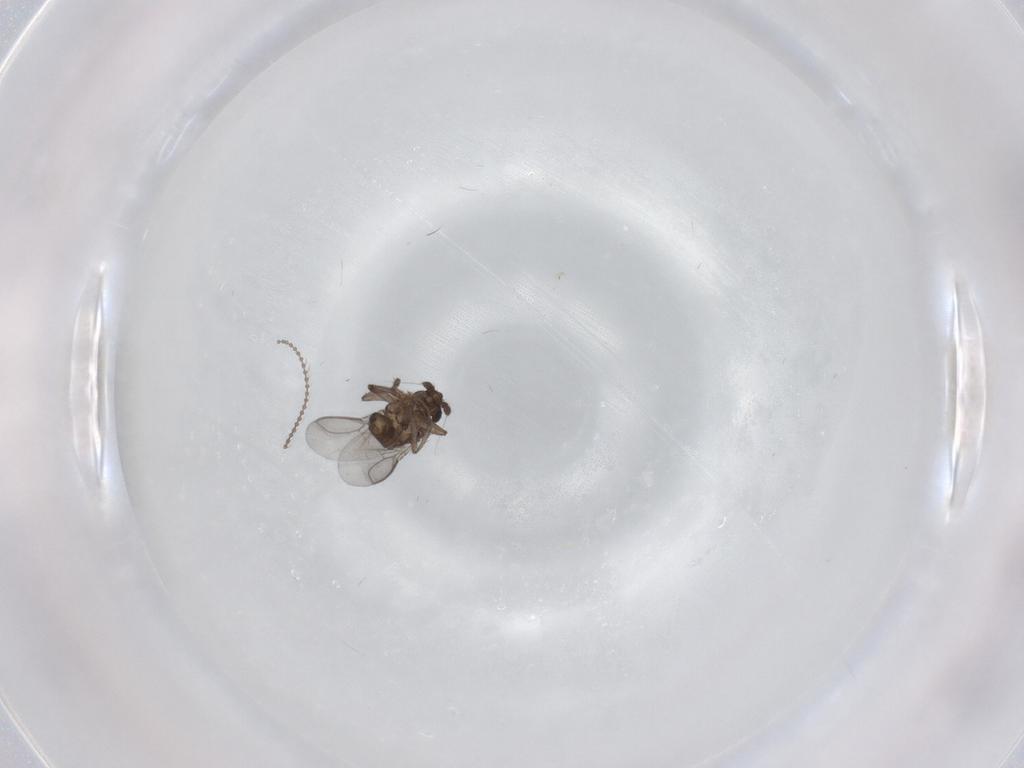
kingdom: Animalia
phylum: Arthropoda
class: Insecta
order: Diptera
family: Sphaeroceridae
